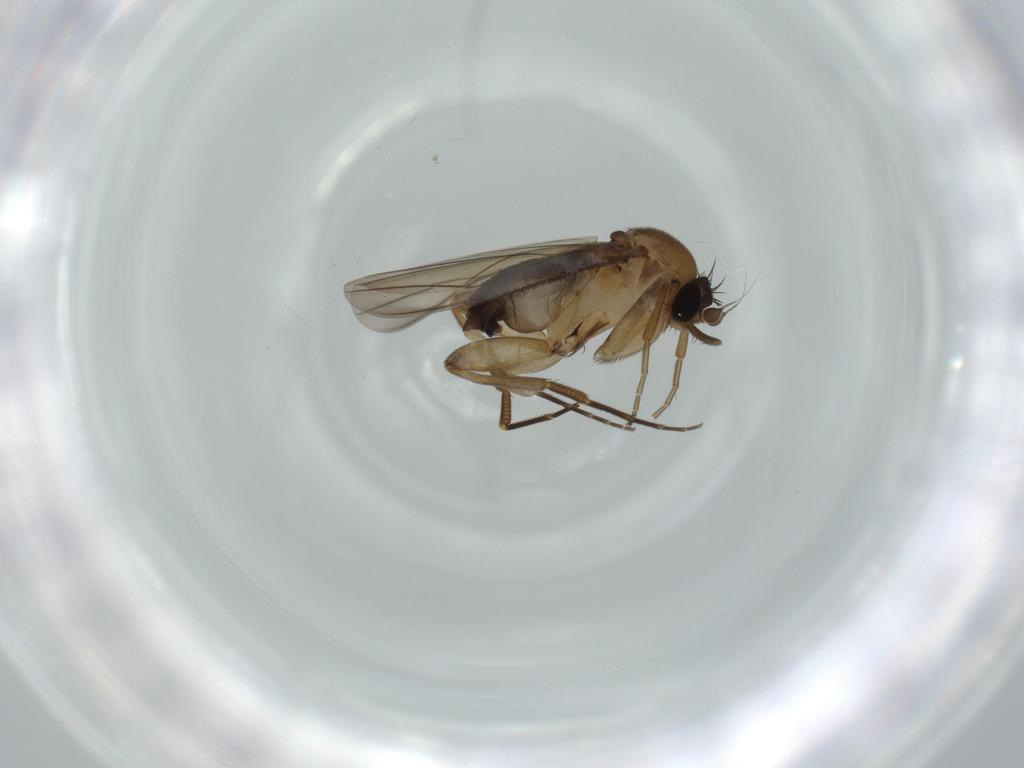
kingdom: Animalia
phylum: Arthropoda
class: Insecta
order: Diptera
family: Phoridae
